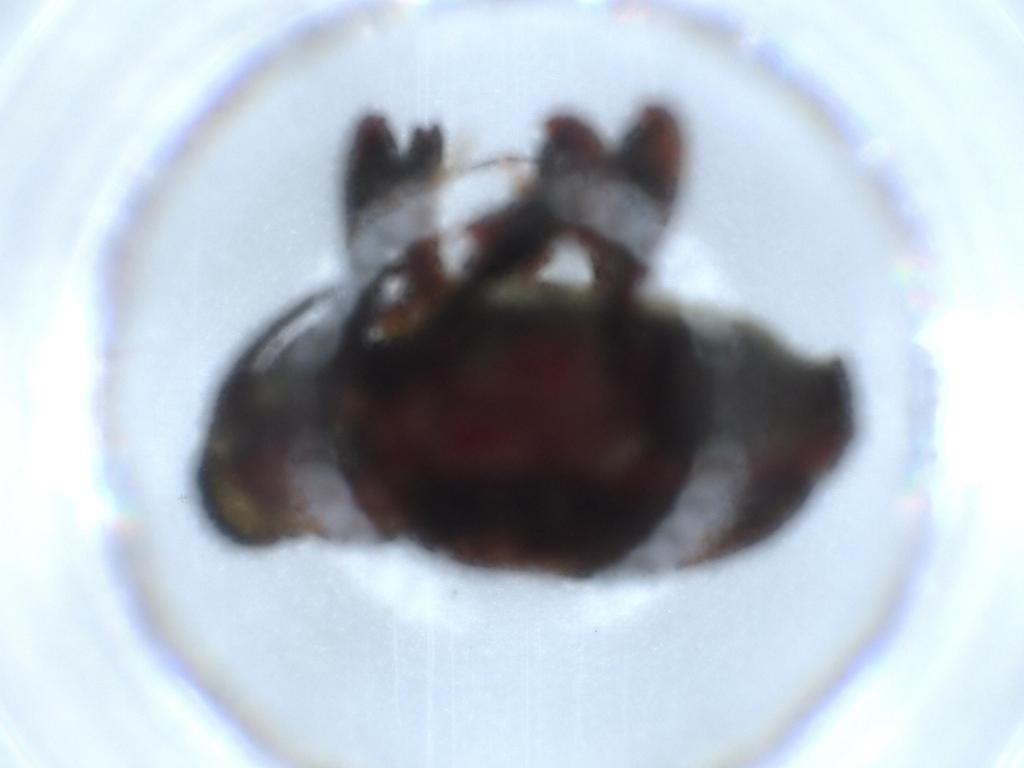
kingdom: Animalia
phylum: Arthropoda
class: Insecta
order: Coleoptera
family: Curculionidae
